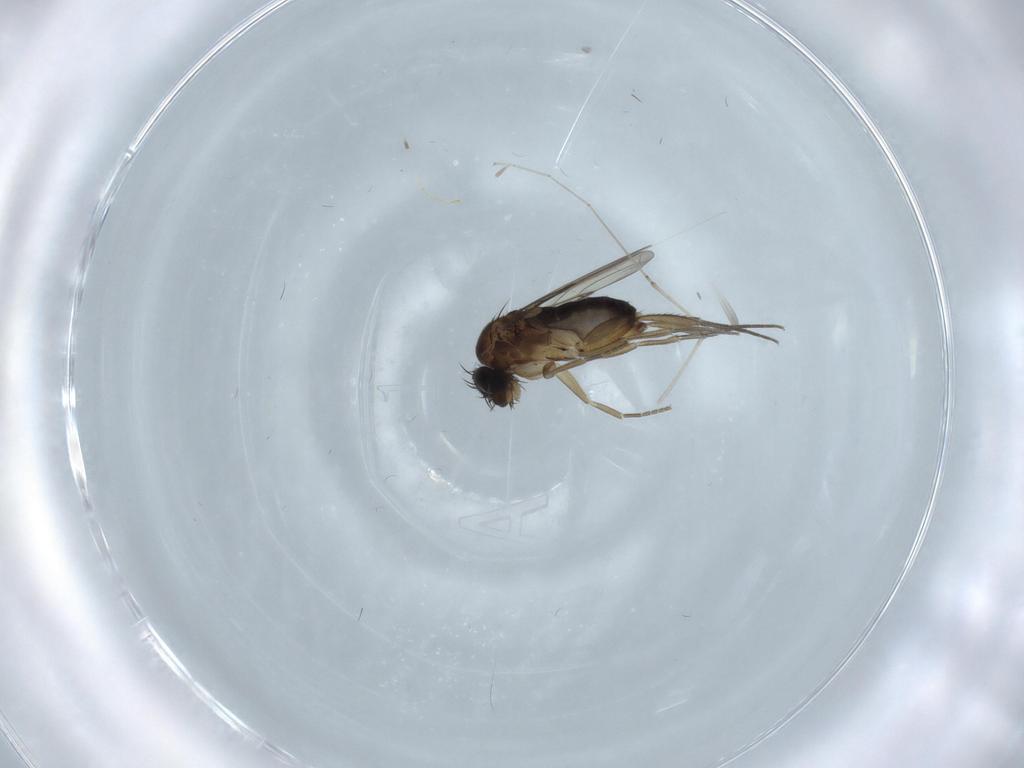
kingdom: Animalia
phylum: Arthropoda
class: Insecta
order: Diptera
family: Phoridae
